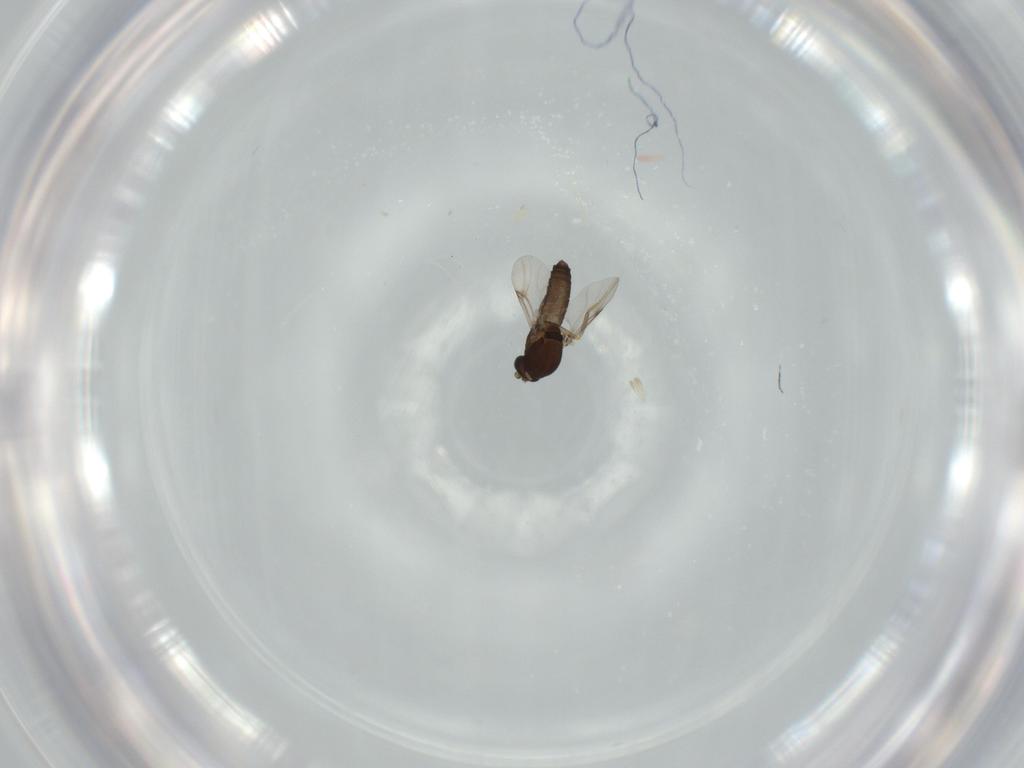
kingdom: Animalia
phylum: Arthropoda
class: Insecta
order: Diptera
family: Ceratopogonidae
